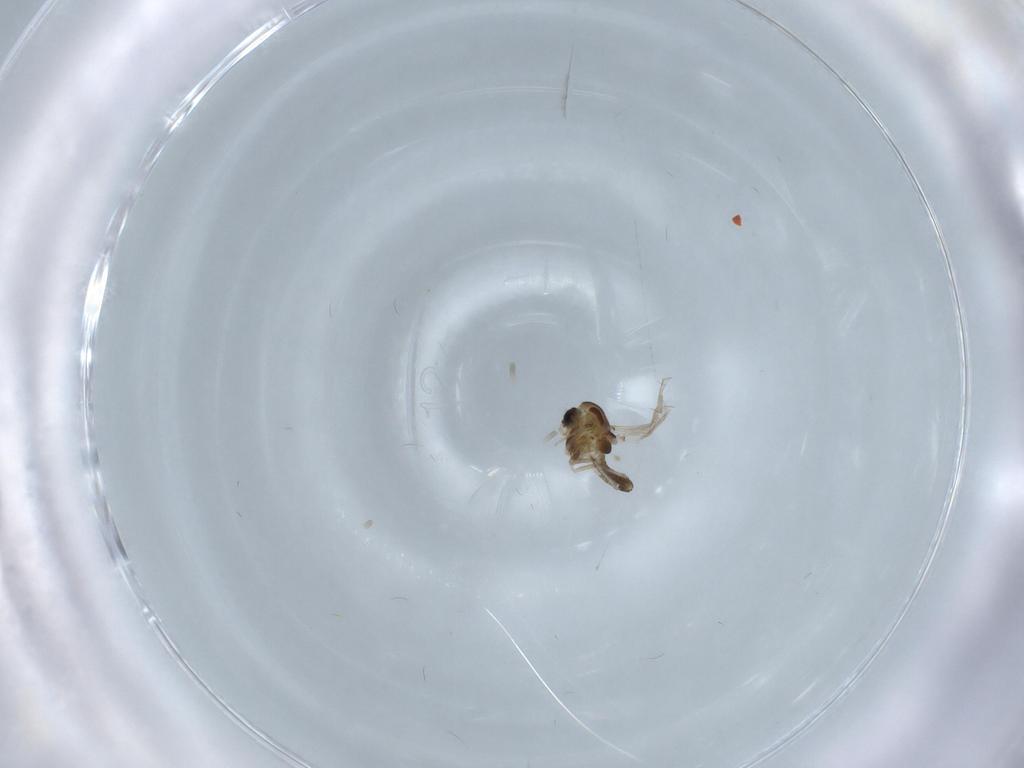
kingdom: Animalia
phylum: Arthropoda
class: Insecta
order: Diptera
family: Chironomidae
